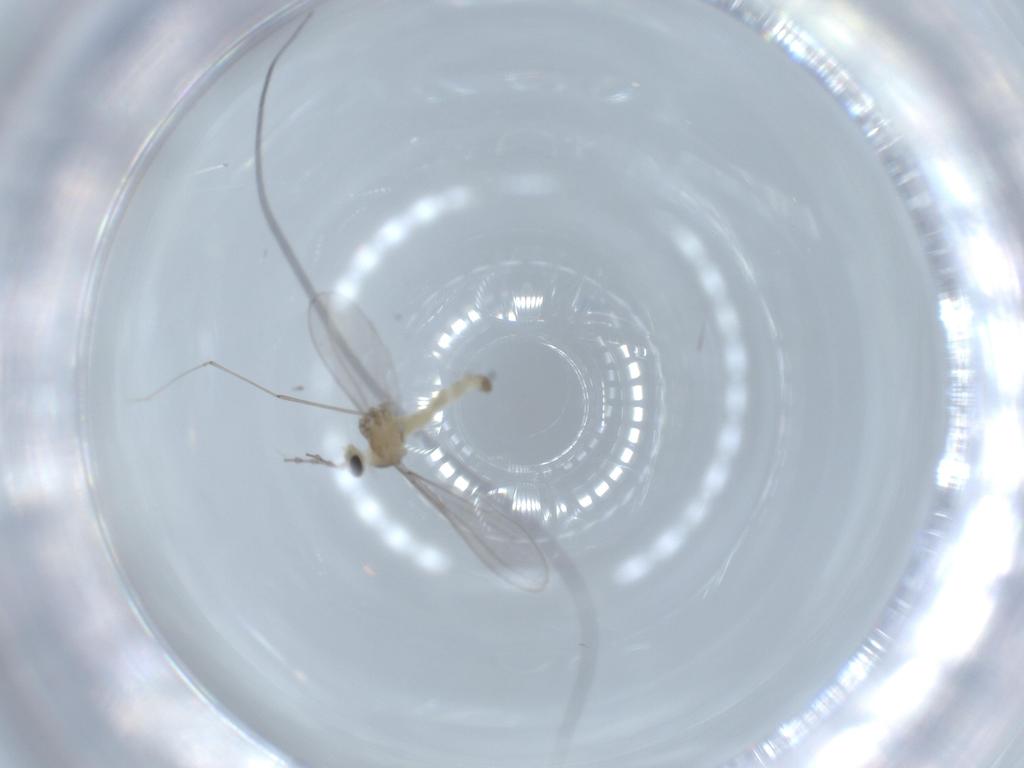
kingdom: Animalia
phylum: Arthropoda
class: Insecta
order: Diptera
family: Cecidomyiidae
